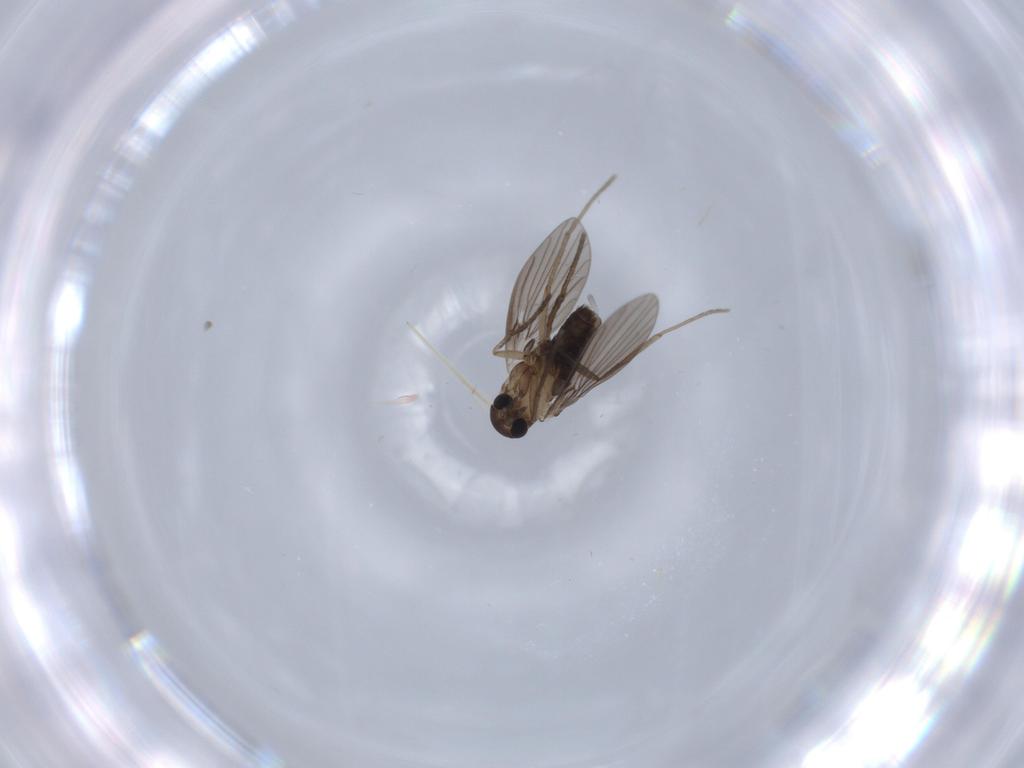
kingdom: Animalia
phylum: Arthropoda
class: Insecta
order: Diptera
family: Psychodidae
